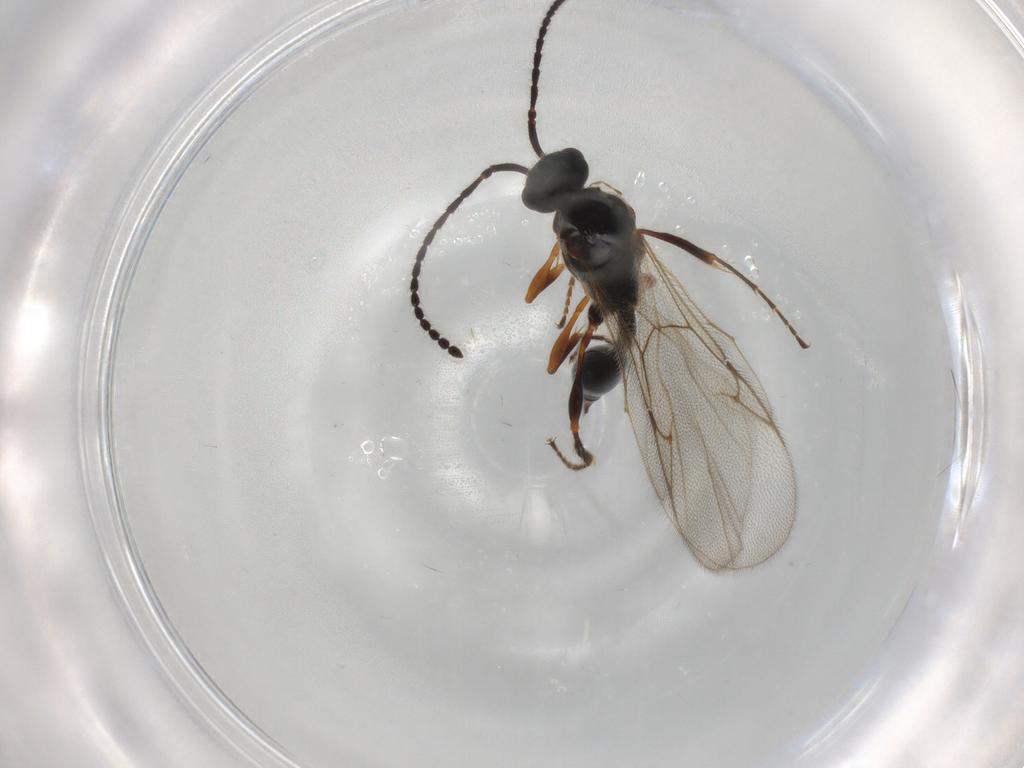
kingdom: Animalia
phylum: Arthropoda
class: Insecta
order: Hymenoptera
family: Diapriidae
